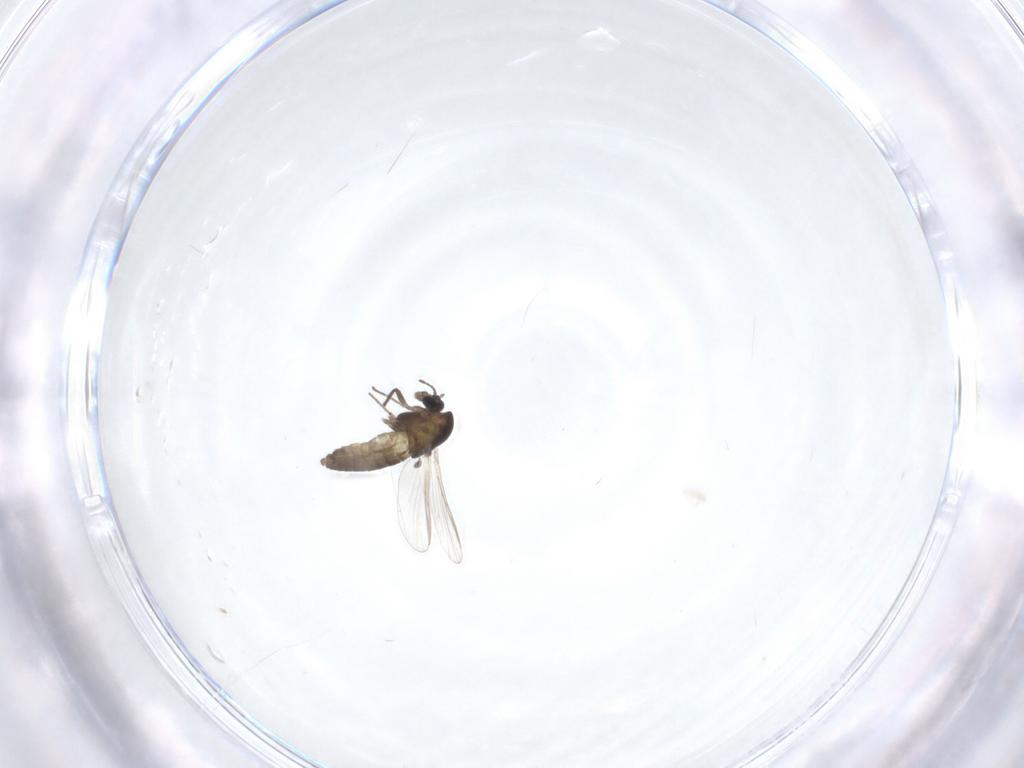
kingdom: Animalia
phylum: Arthropoda
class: Insecta
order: Diptera
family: Chironomidae
